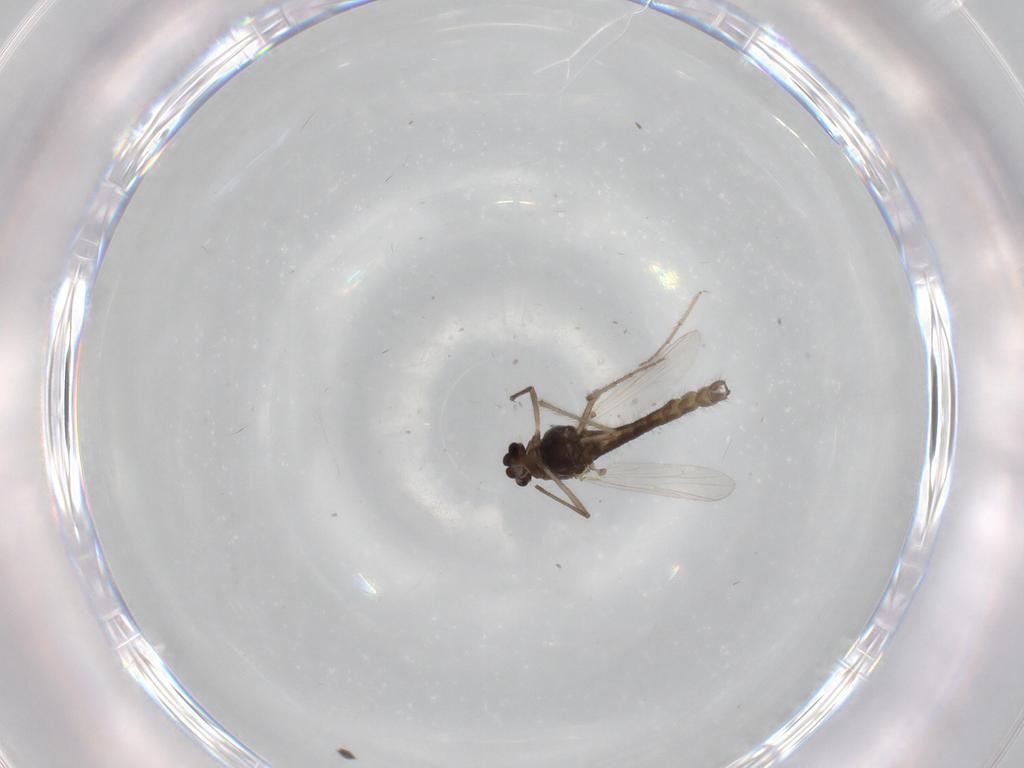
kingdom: Animalia
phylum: Arthropoda
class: Insecta
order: Diptera
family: Chironomidae
